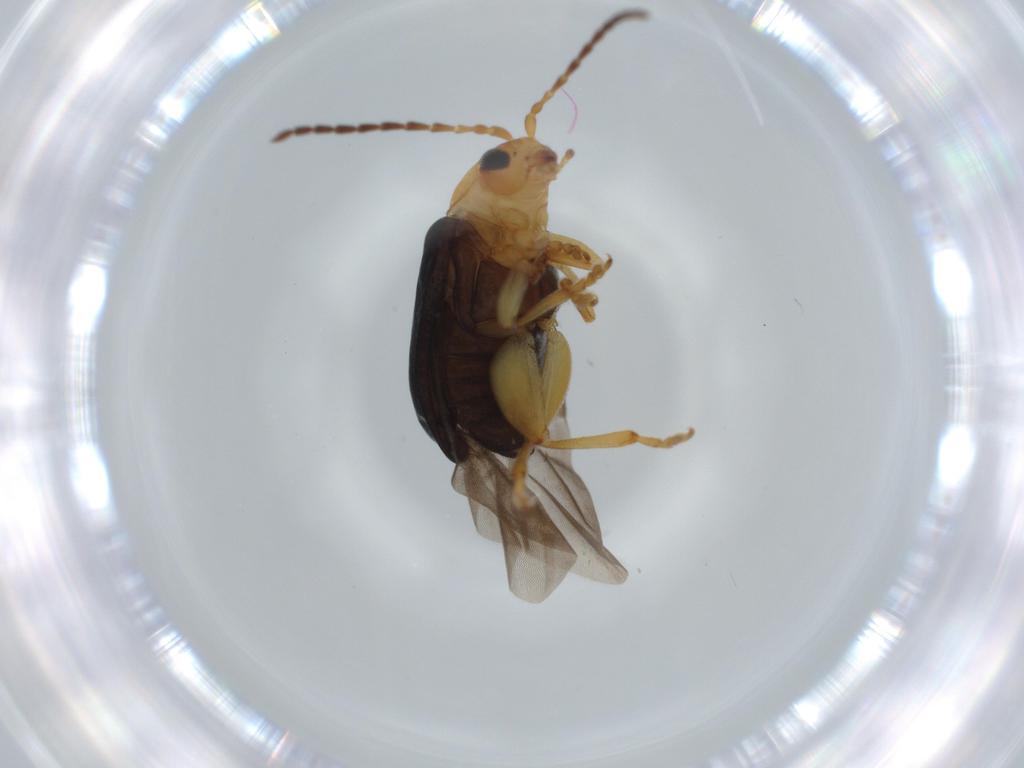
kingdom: Animalia
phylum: Arthropoda
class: Insecta
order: Coleoptera
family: Chrysomelidae
